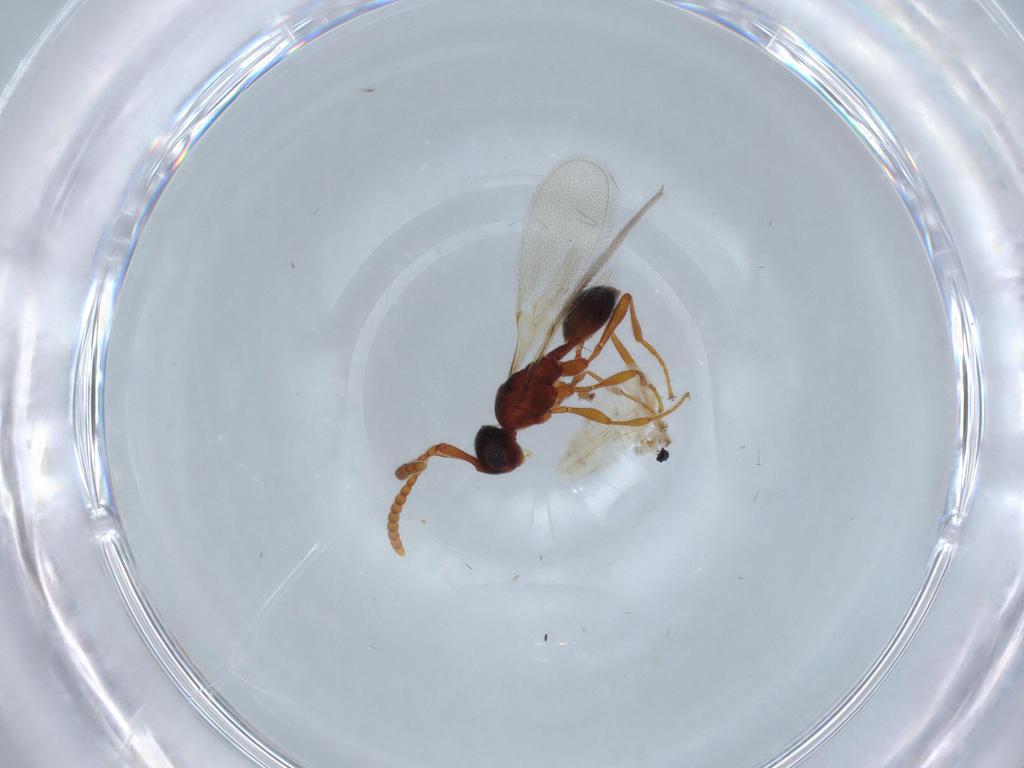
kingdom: Animalia
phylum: Arthropoda
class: Insecta
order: Hymenoptera
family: Diapriidae
